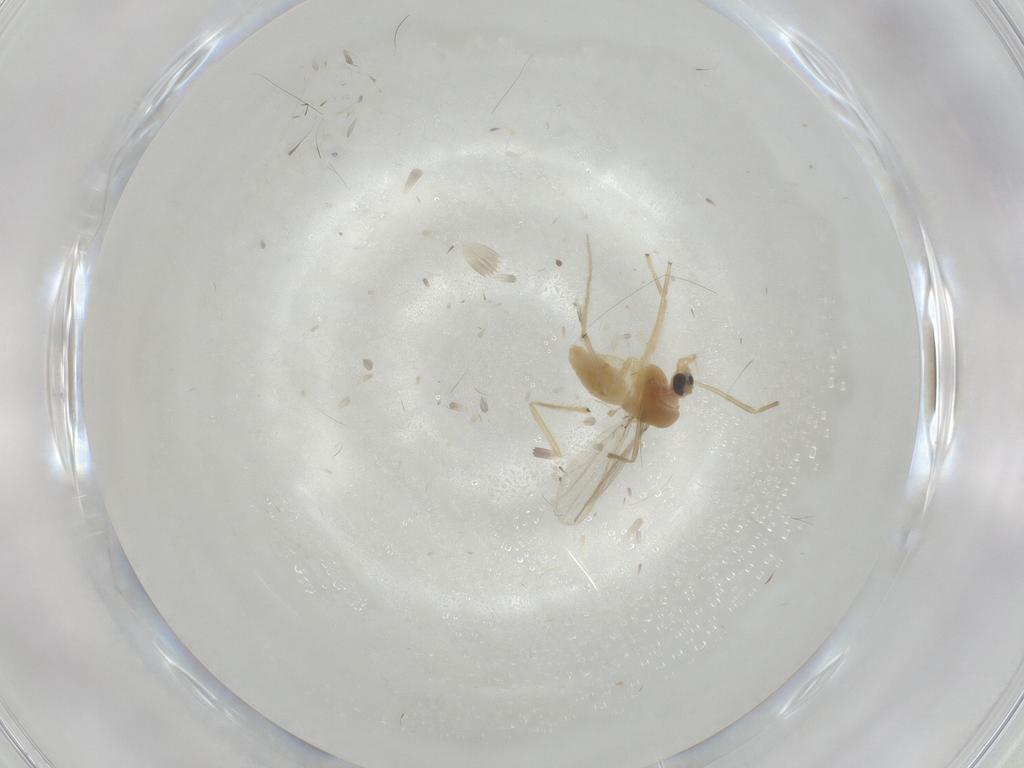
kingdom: Animalia
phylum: Arthropoda
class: Insecta
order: Diptera
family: Chironomidae
